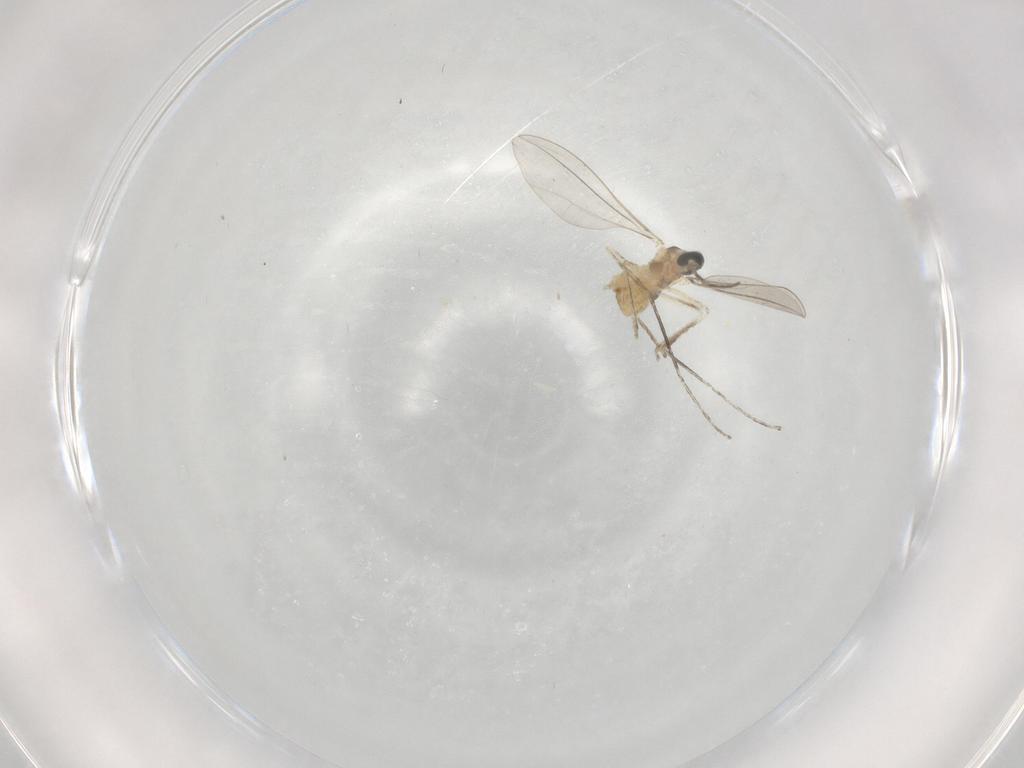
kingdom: Animalia
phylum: Arthropoda
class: Insecta
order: Diptera
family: Cecidomyiidae
